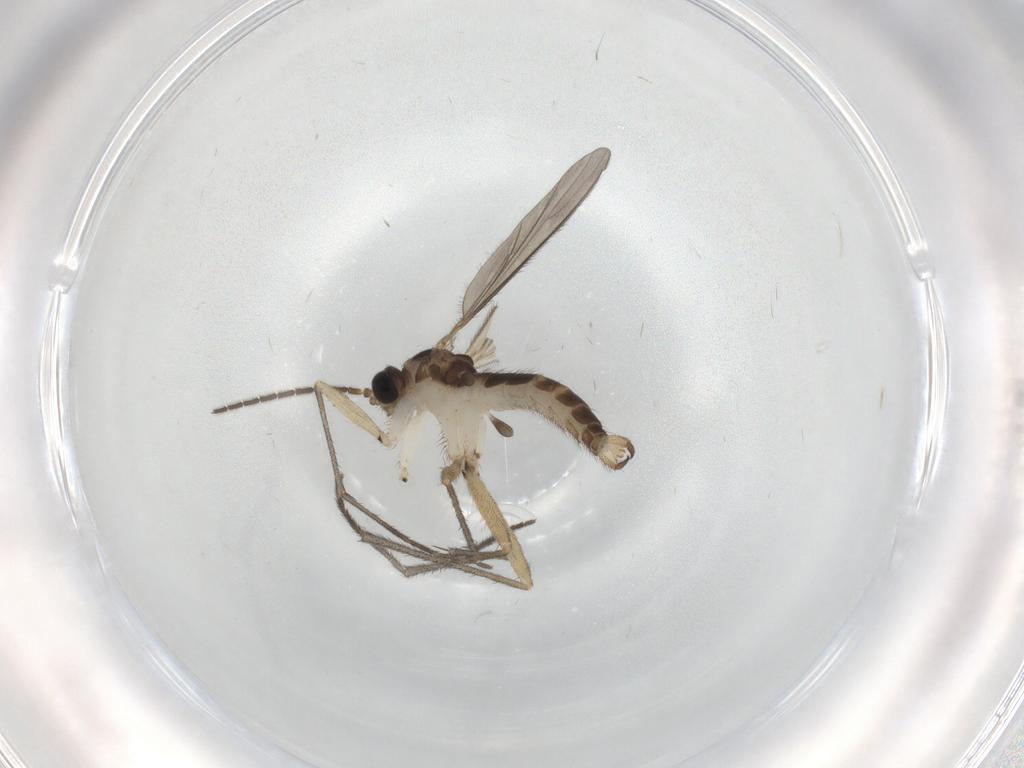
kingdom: Animalia
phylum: Arthropoda
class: Insecta
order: Diptera
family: Sciaridae
